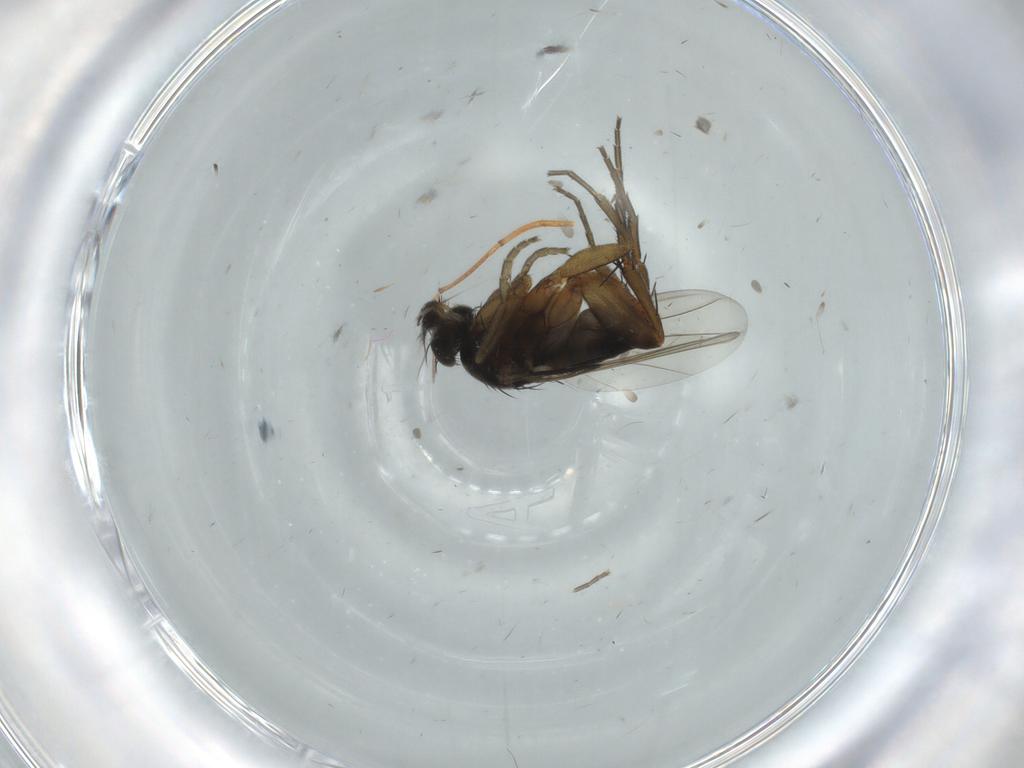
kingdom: Animalia
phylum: Arthropoda
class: Insecta
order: Diptera
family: Phoridae
